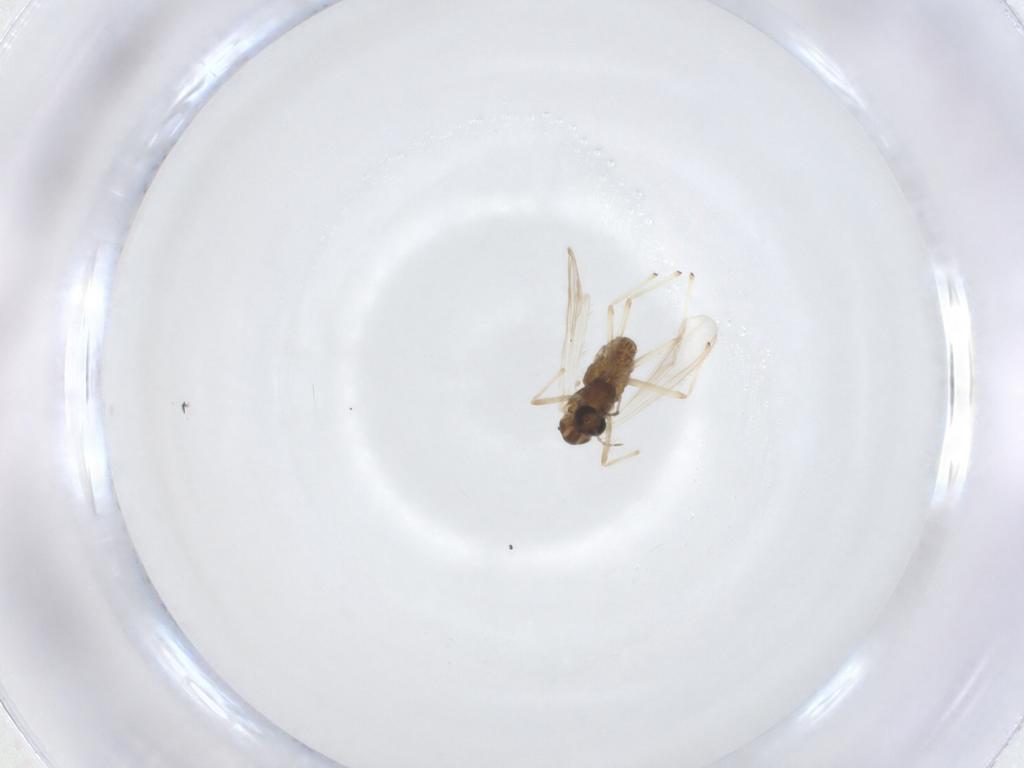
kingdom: Animalia
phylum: Arthropoda
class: Insecta
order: Diptera
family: Chironomidae
